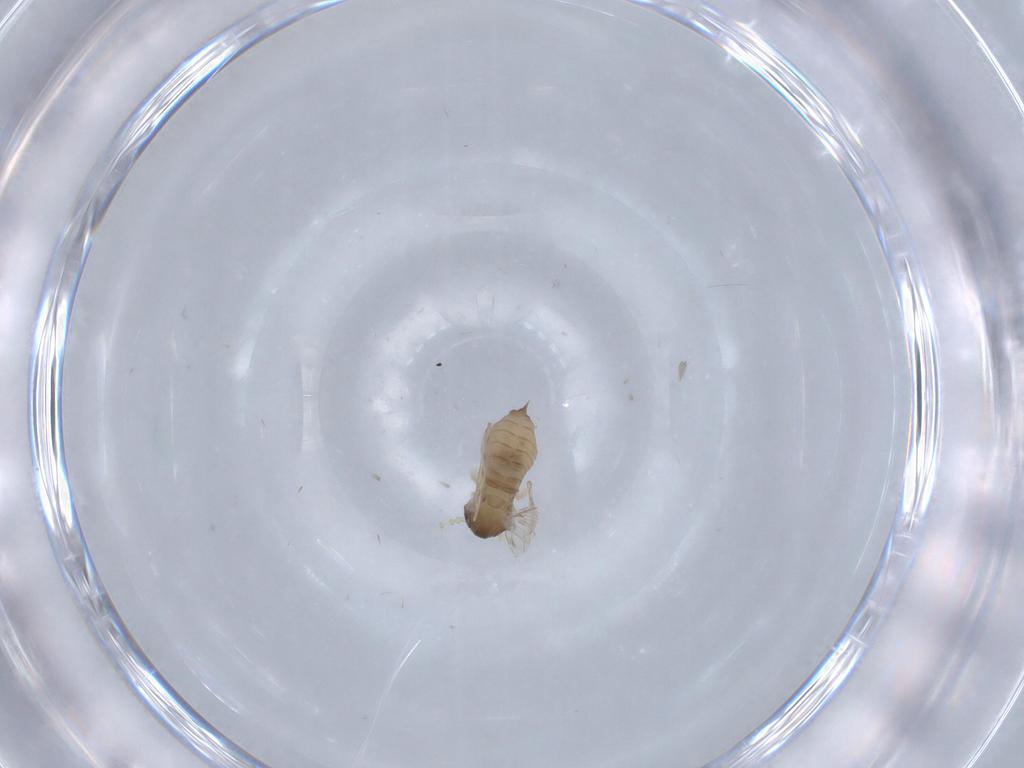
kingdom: Animalia
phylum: Arthropoda
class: Insecta
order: Diptera
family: Psychodidae
